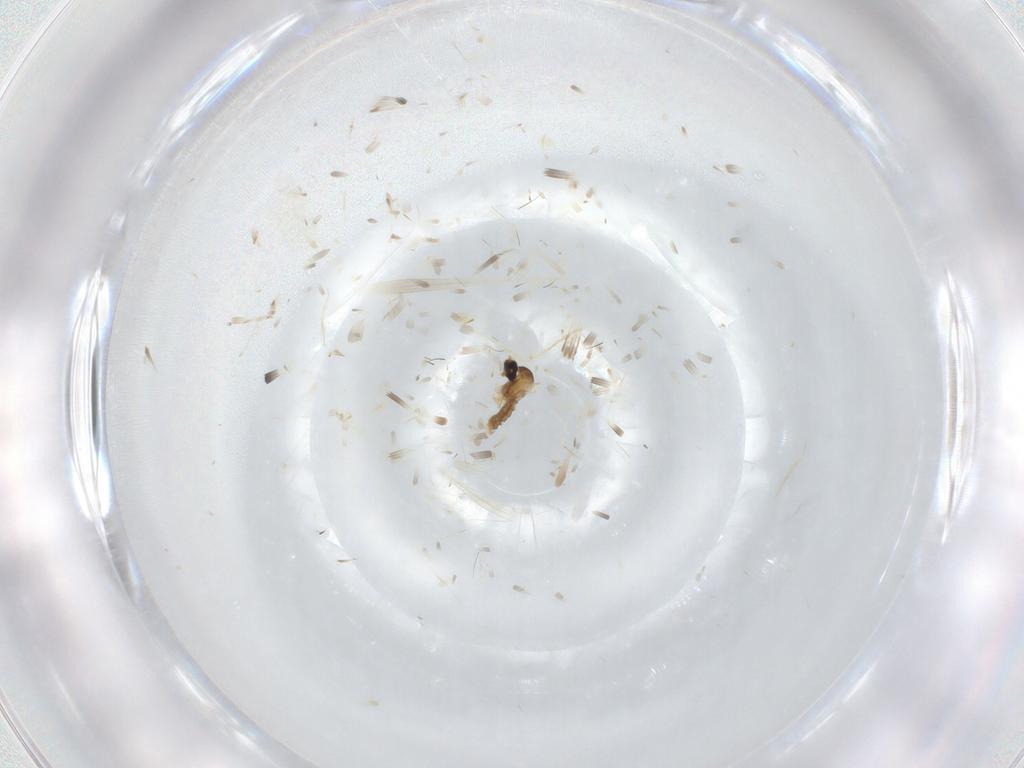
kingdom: Animalia
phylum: Arthropoda
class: Insecta
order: Diptera
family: Cecidomyiidae
